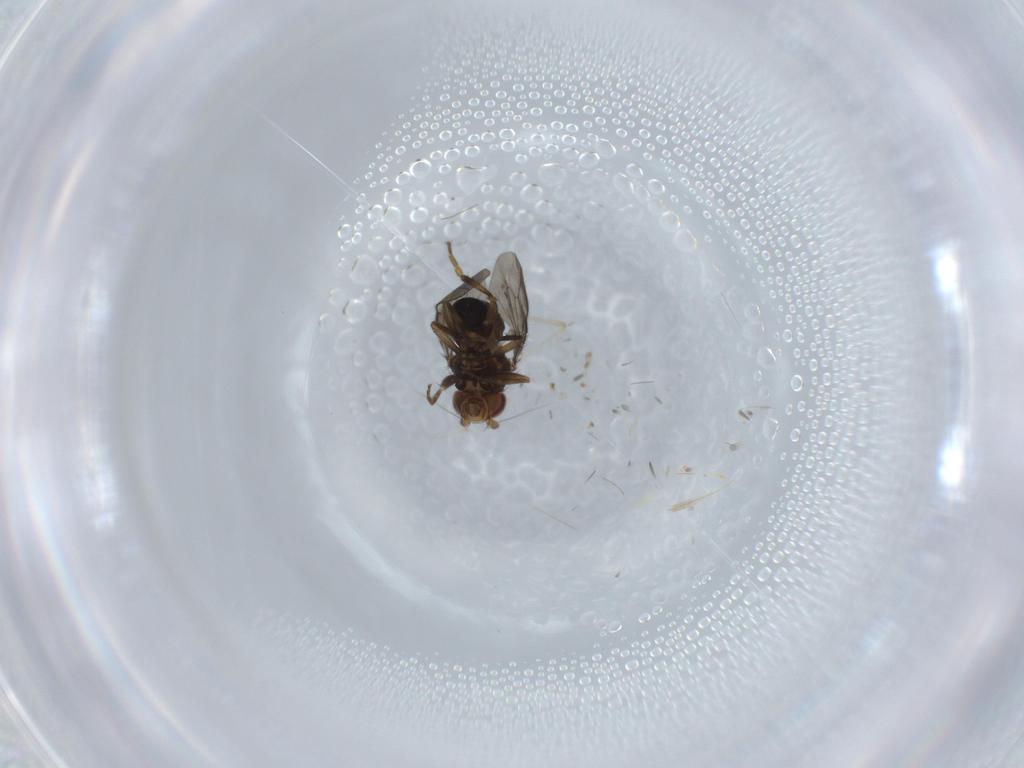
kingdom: Animalia
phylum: Arthropoda
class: Insecta
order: Diptera
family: Cecidomyiidae
